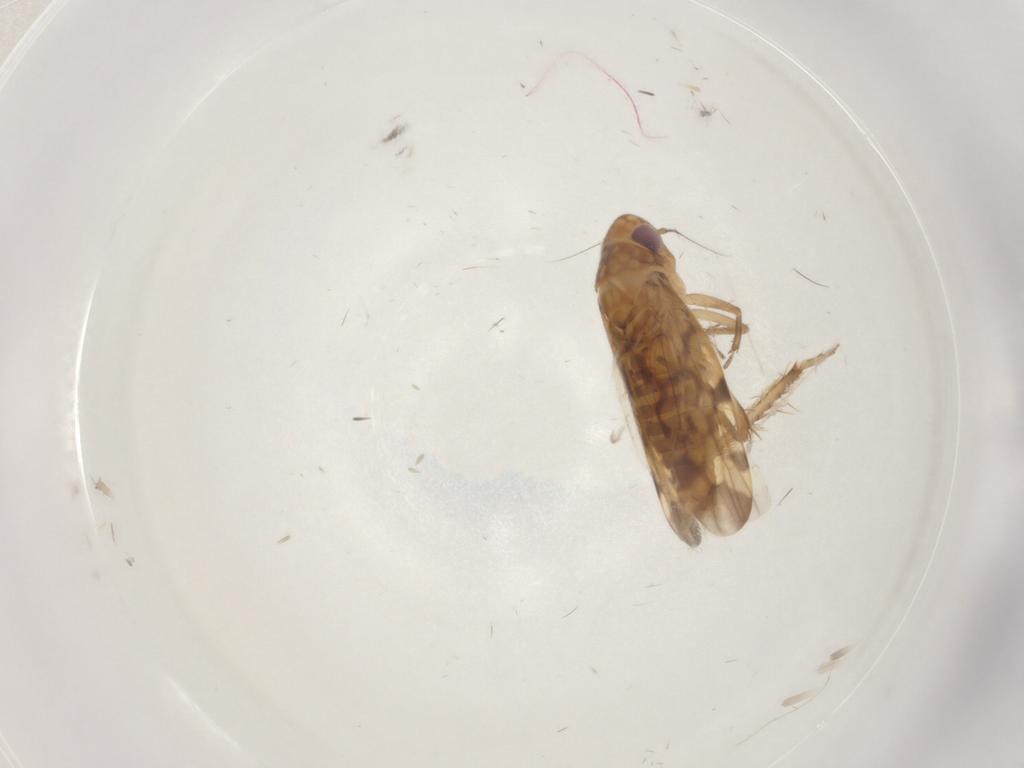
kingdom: Animalia
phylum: Arthropoda
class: Insecta
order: Hemiptera
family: Cicadellidae
